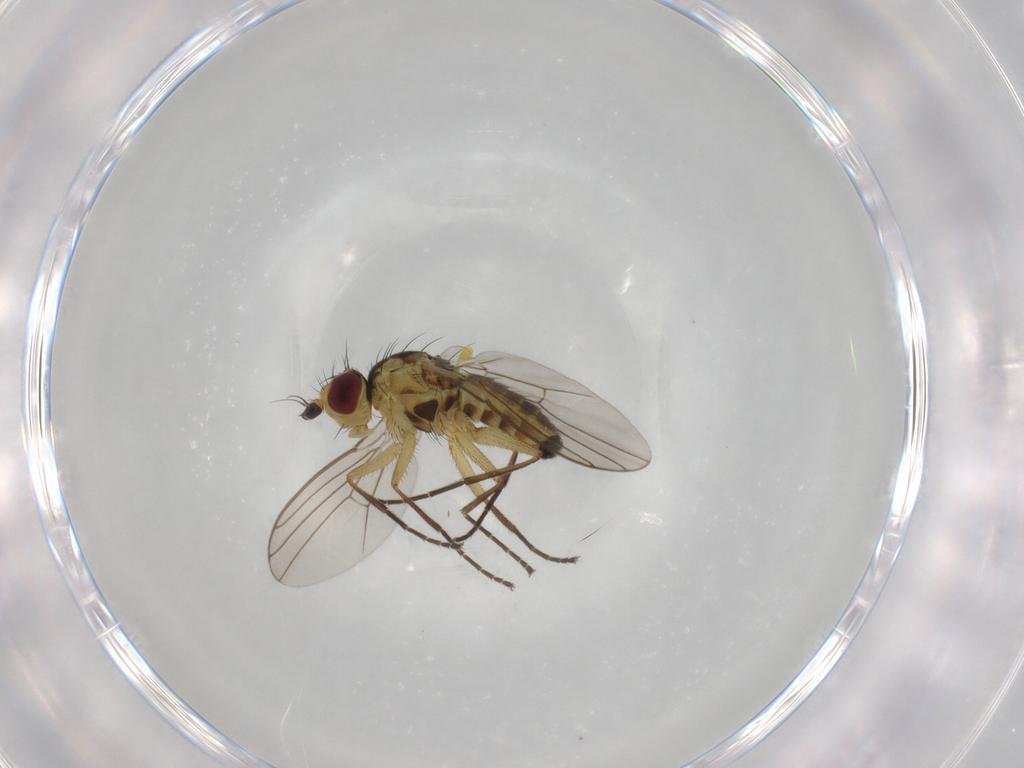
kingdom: Animalia
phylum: Arthropoda
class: Insecta
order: Diptera
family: Agromyzidae
